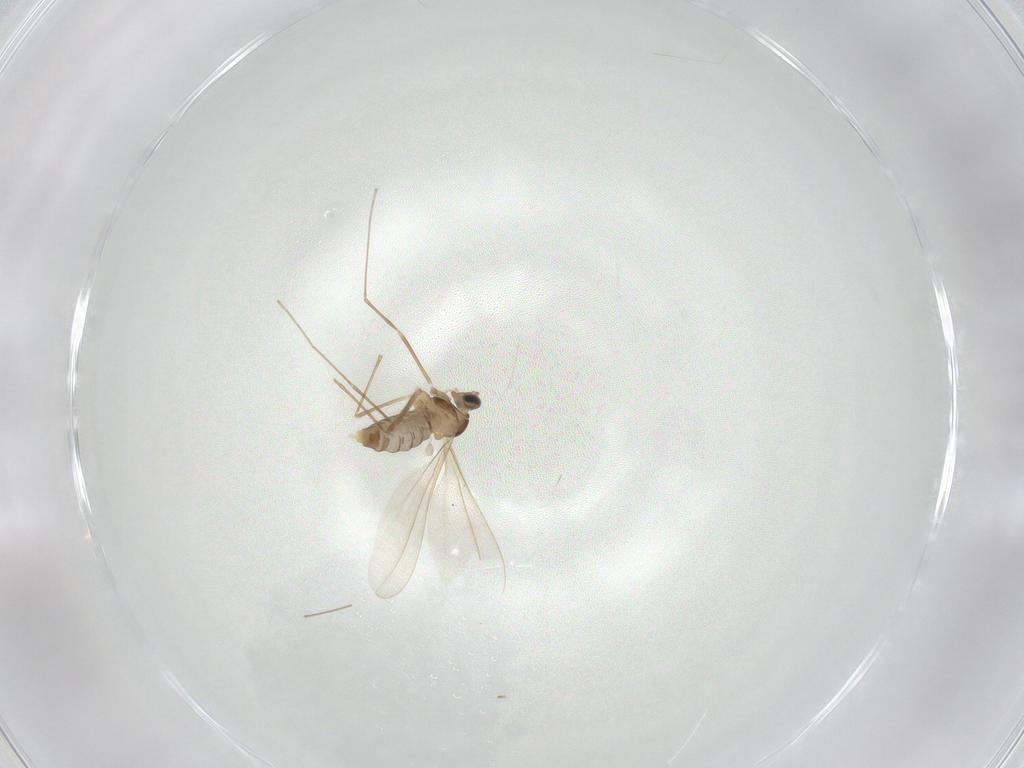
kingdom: Animalia
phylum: Arthropoda
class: Insecta
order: Diptera
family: Cecidomyiidae
